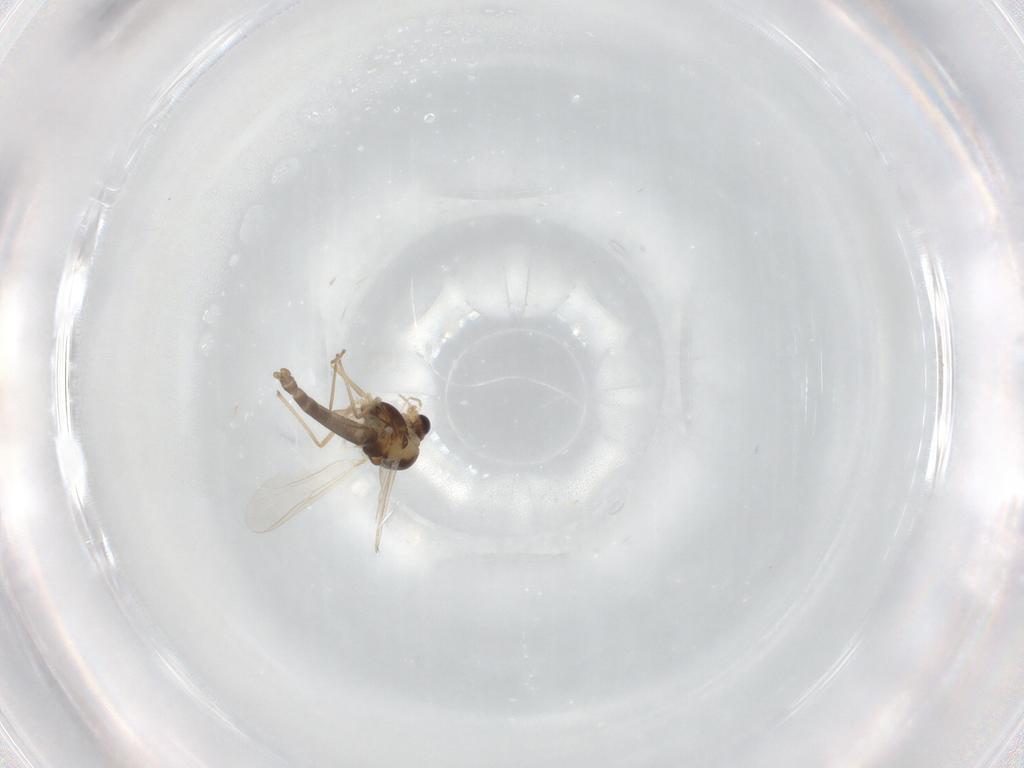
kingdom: Animalia
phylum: Arthropoda
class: Insecta
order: Diptera
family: Chironomidae
